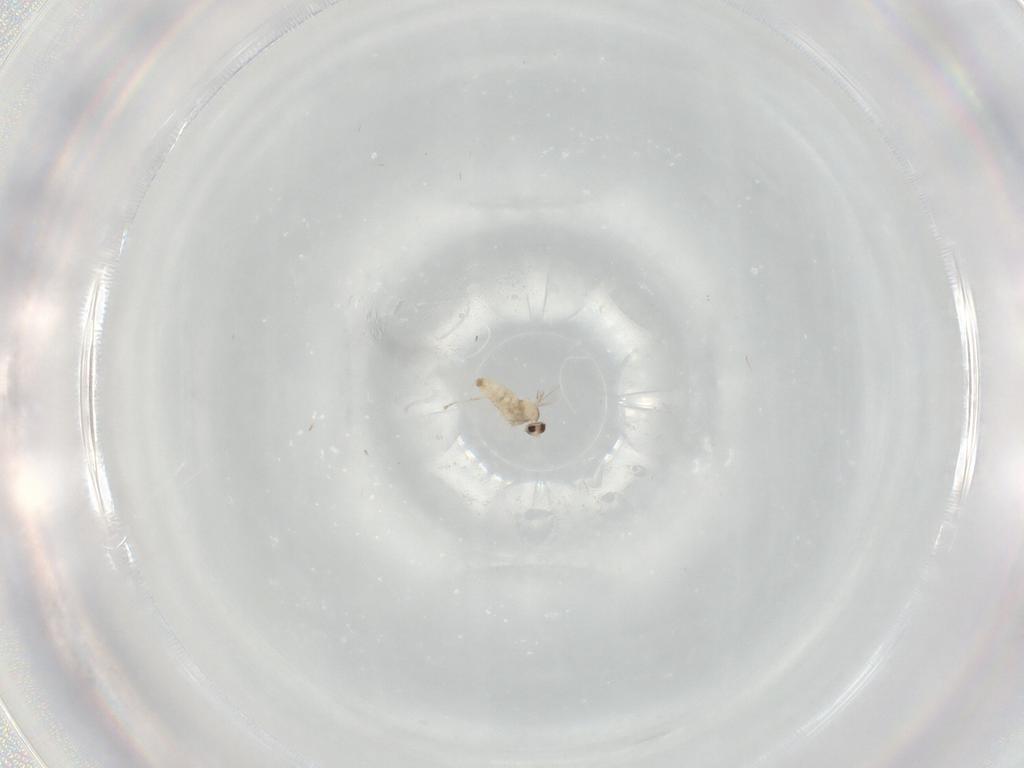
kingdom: Animalia
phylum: Arthropoda
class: Insecta
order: Diptera
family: Cecidomyiidae
